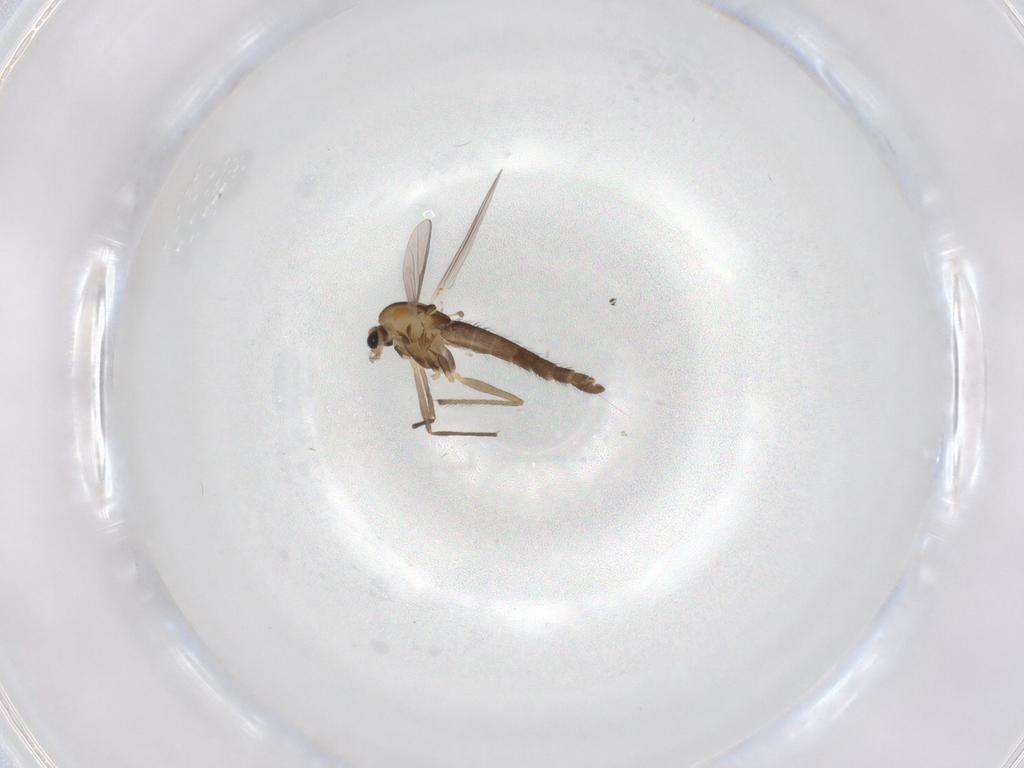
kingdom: Animalia
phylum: Arthropoda
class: Insecta
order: Diptera
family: Chironomidae
